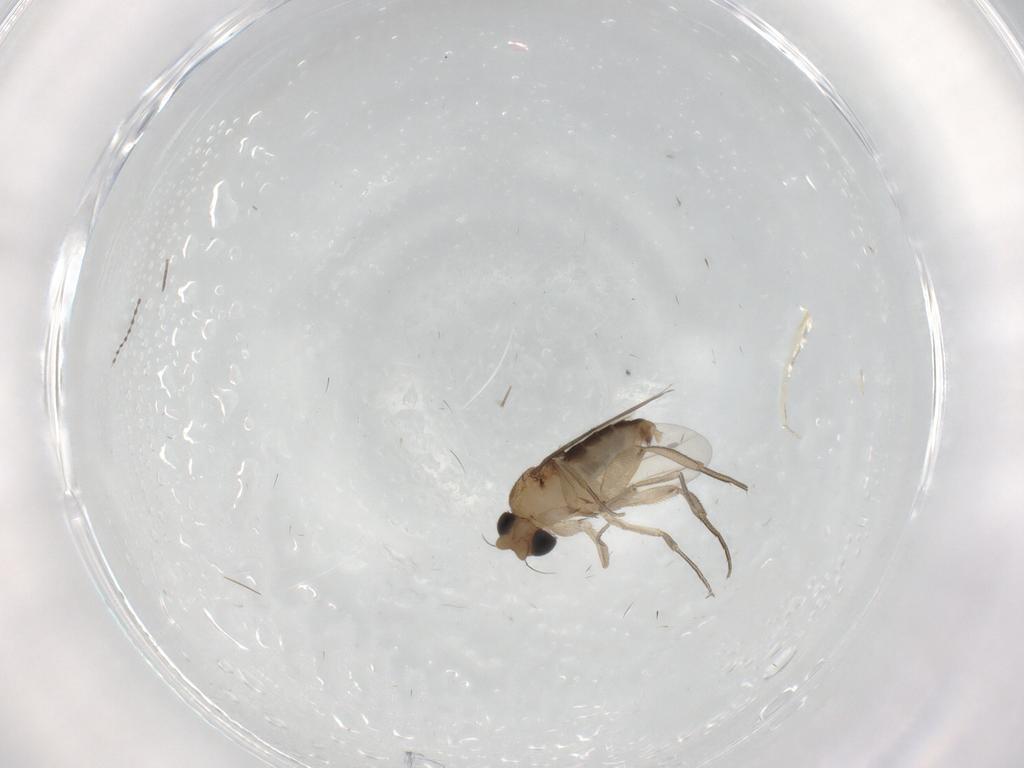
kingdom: Animalia
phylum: Arthropoda
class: Insecta
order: Diptera
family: Phoridae
